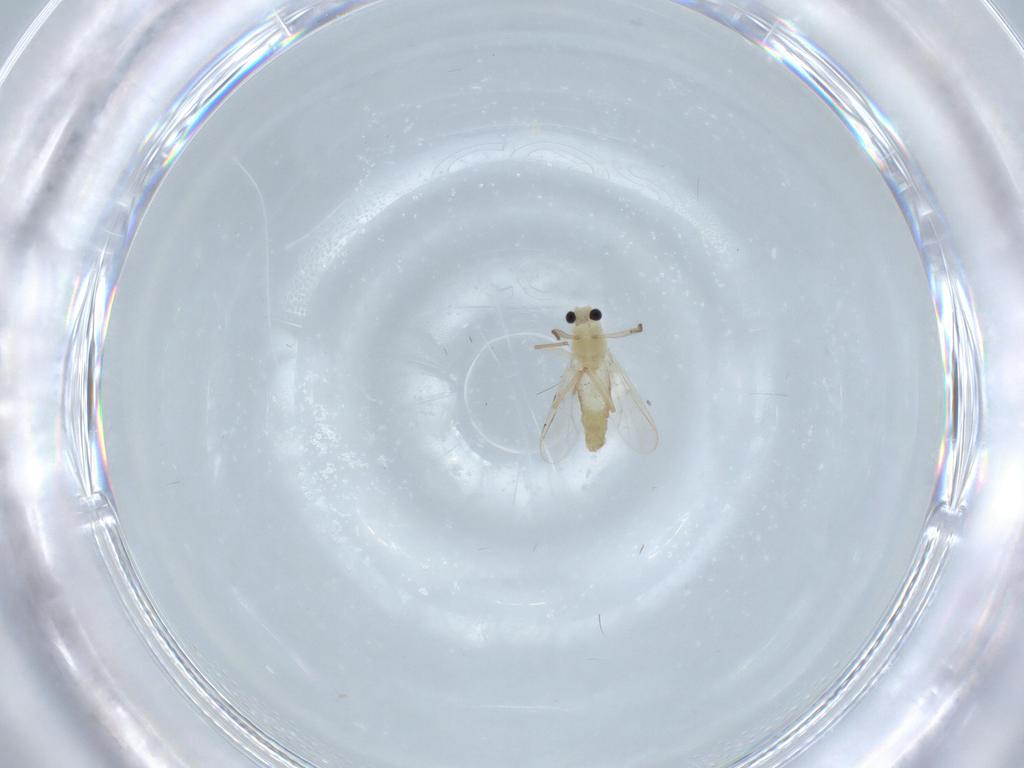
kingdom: Animalia
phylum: Arthropoda
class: Insecta
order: Diptera
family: Chironomidae
